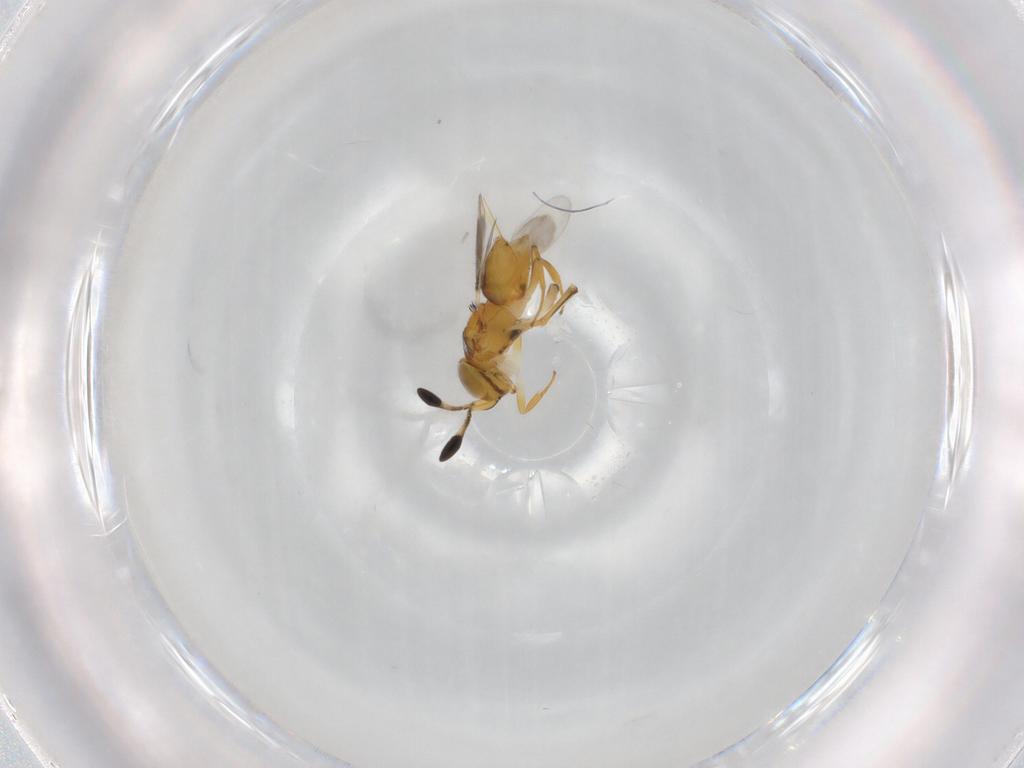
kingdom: Animalia
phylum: Arthropoda
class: Insecta
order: Hymenoptera
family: Encyrtidae
